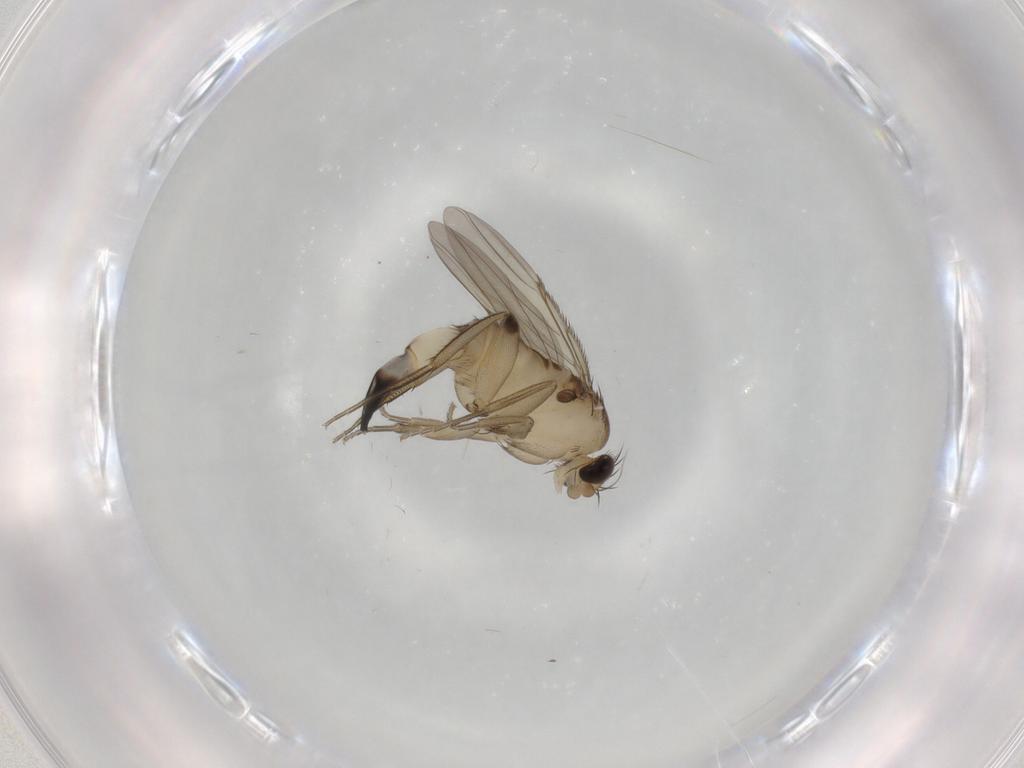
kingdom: Animalia
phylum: Arthropoda
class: Insecta
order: Diptera
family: Phoridae
